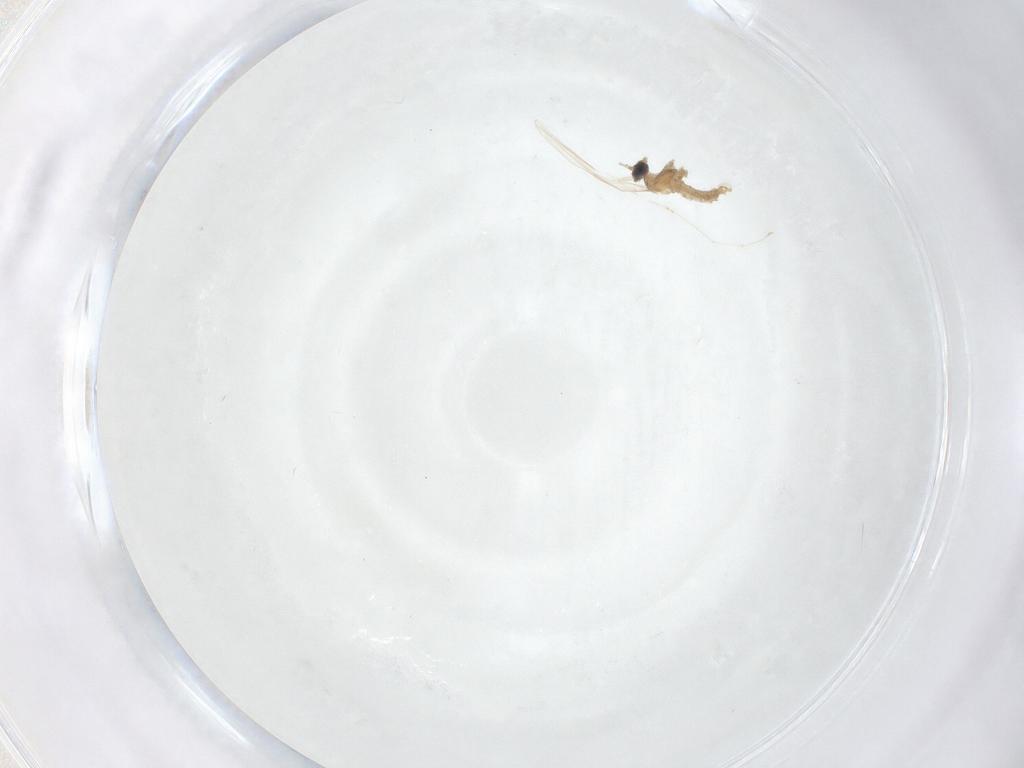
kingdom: Animalia
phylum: Arthropoda
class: Insecta
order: Diptera
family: Cecidomyiidae
